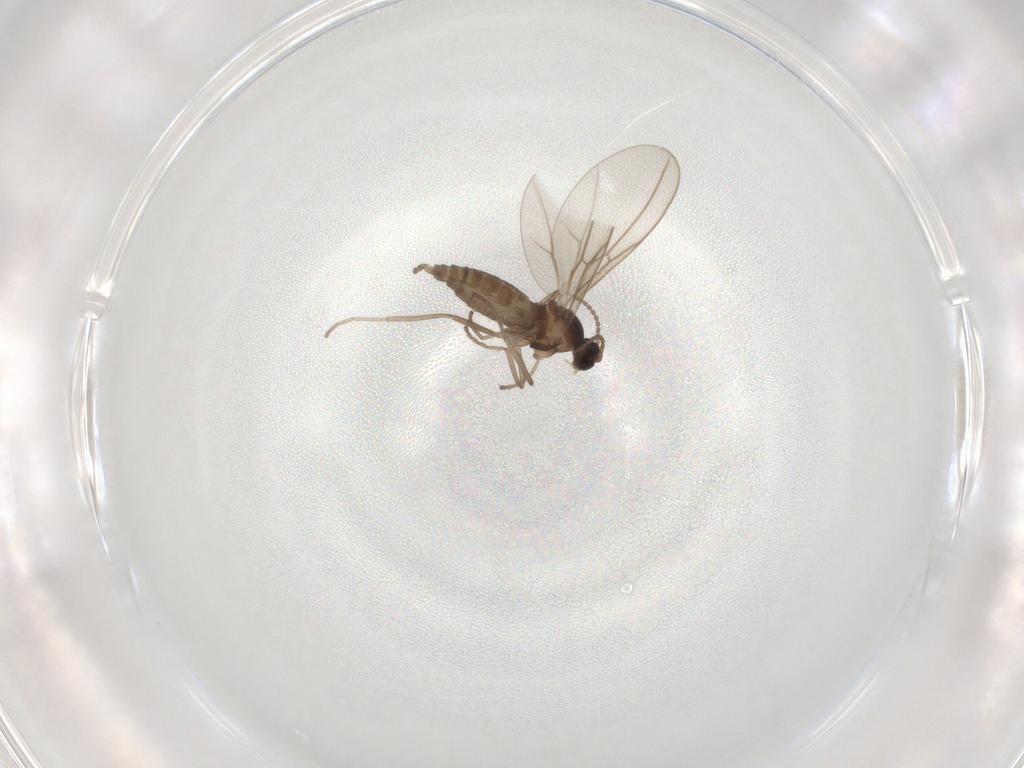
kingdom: Animalia
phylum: Arthropoda
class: Insecta
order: Diptera
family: Cecidomyiidae
